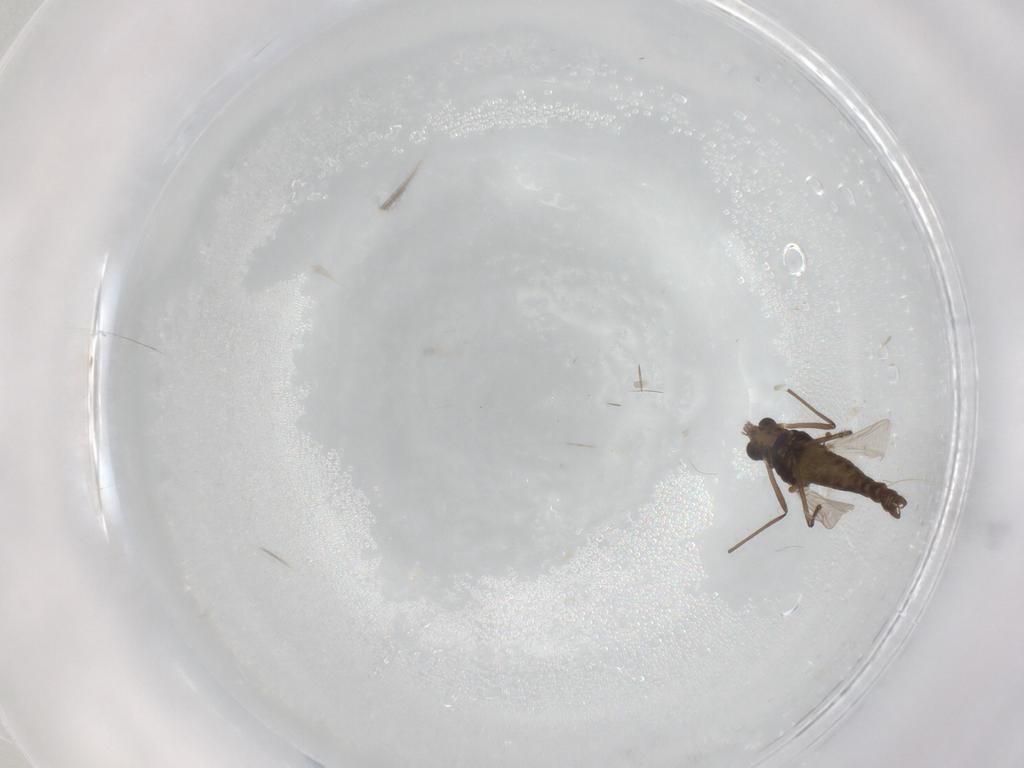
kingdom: Animalia
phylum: Arthropoda
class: Insecta
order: Diptera
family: Chironomidae
